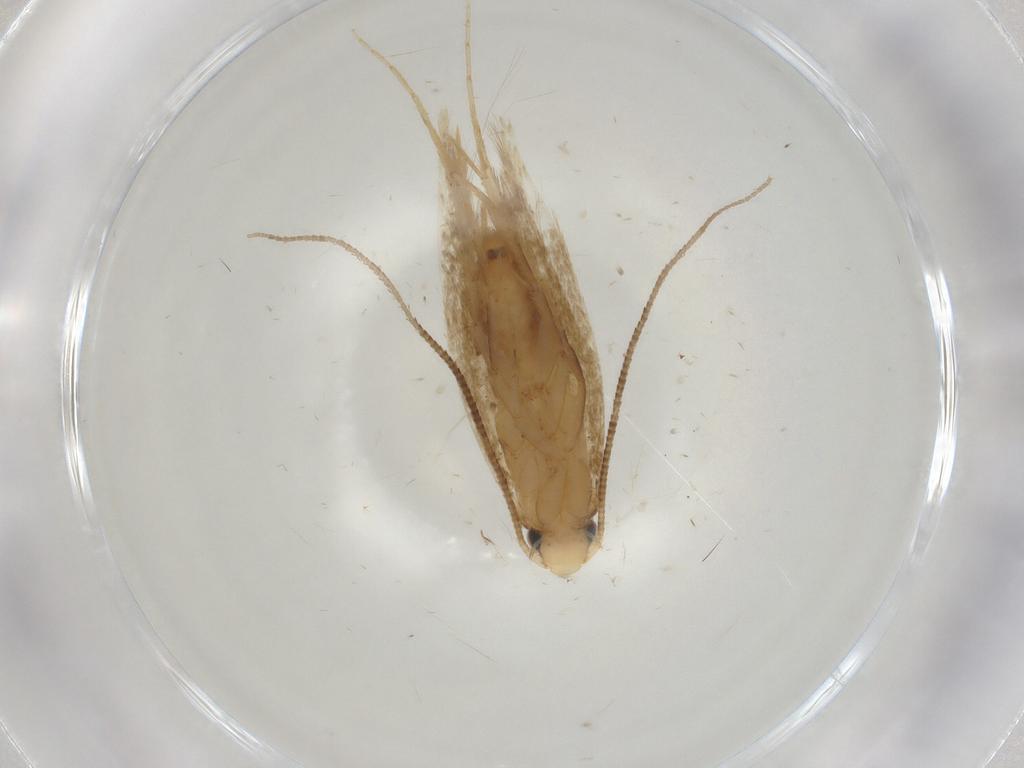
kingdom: Animalia
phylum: Arthropoda
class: Insecta
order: Lepidoptera
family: Tineidae
